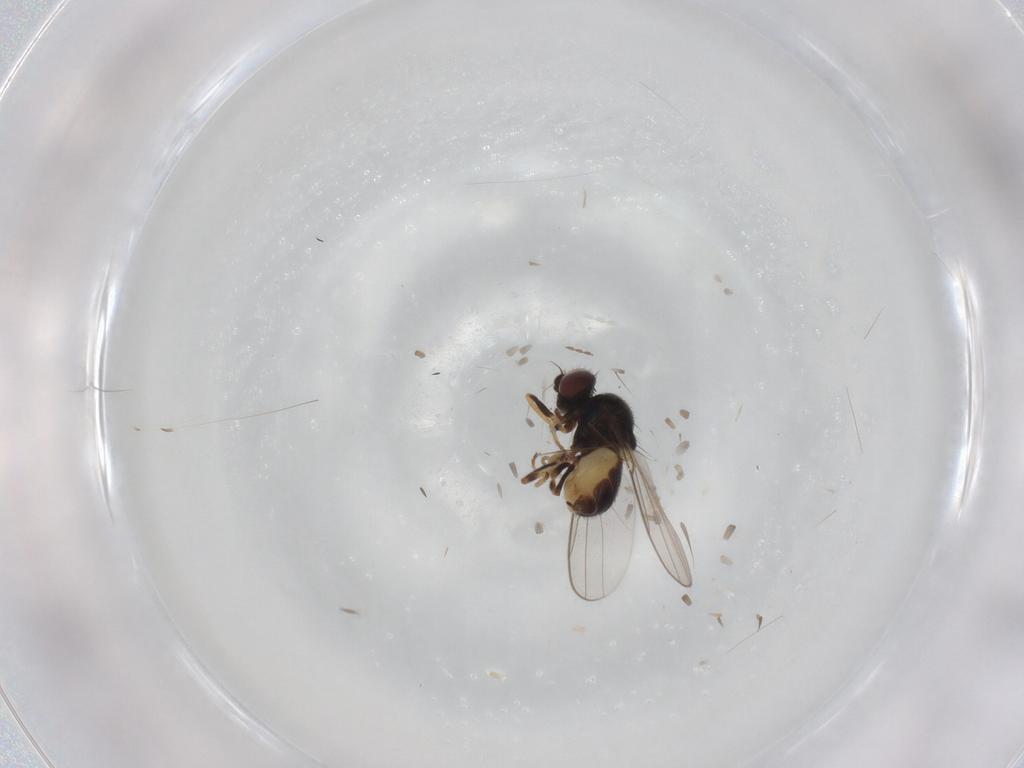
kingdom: Animalia
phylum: Arthropoda
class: Insecta
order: Diptera
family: Chloropidae
